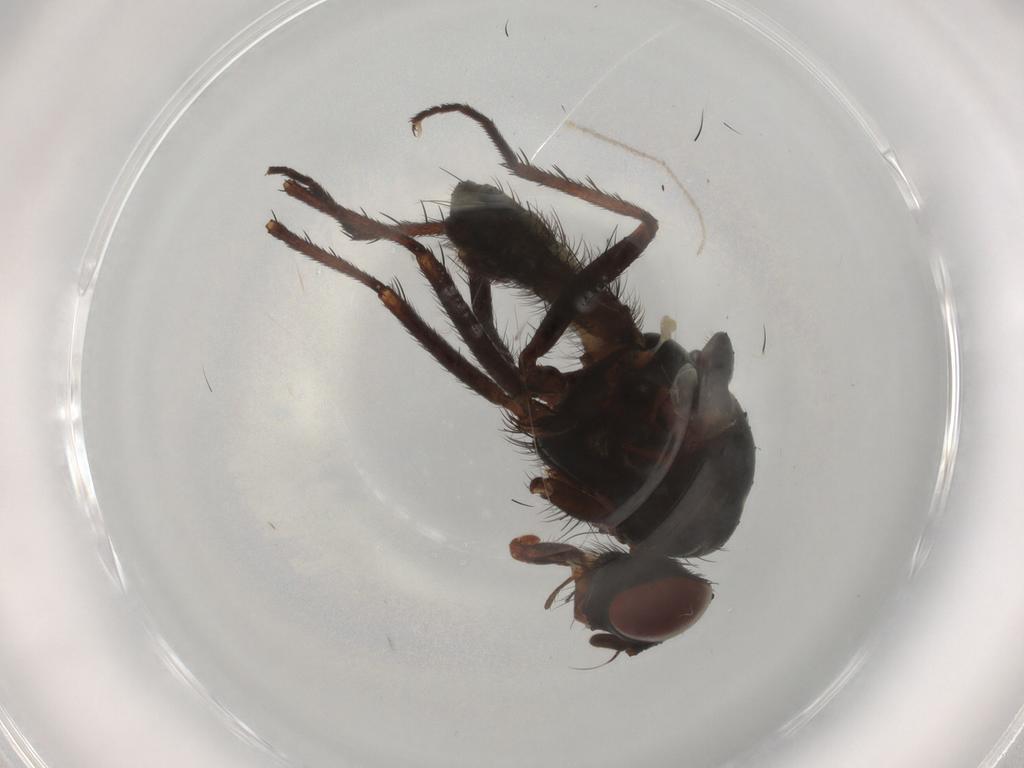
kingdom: Animalia
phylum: Arthropoda
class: Insecta
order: Diptera
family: Anthomyiidae
